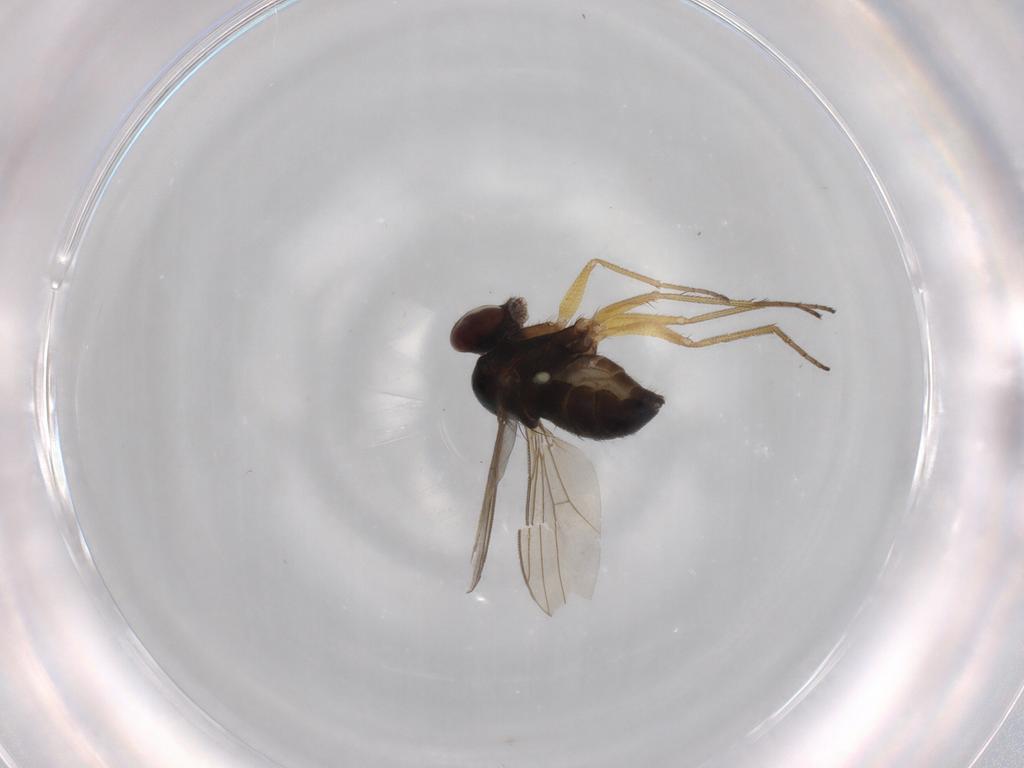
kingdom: Animalia
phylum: Arthropoda
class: Insecta
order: Diptera
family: Dolichopodidae
